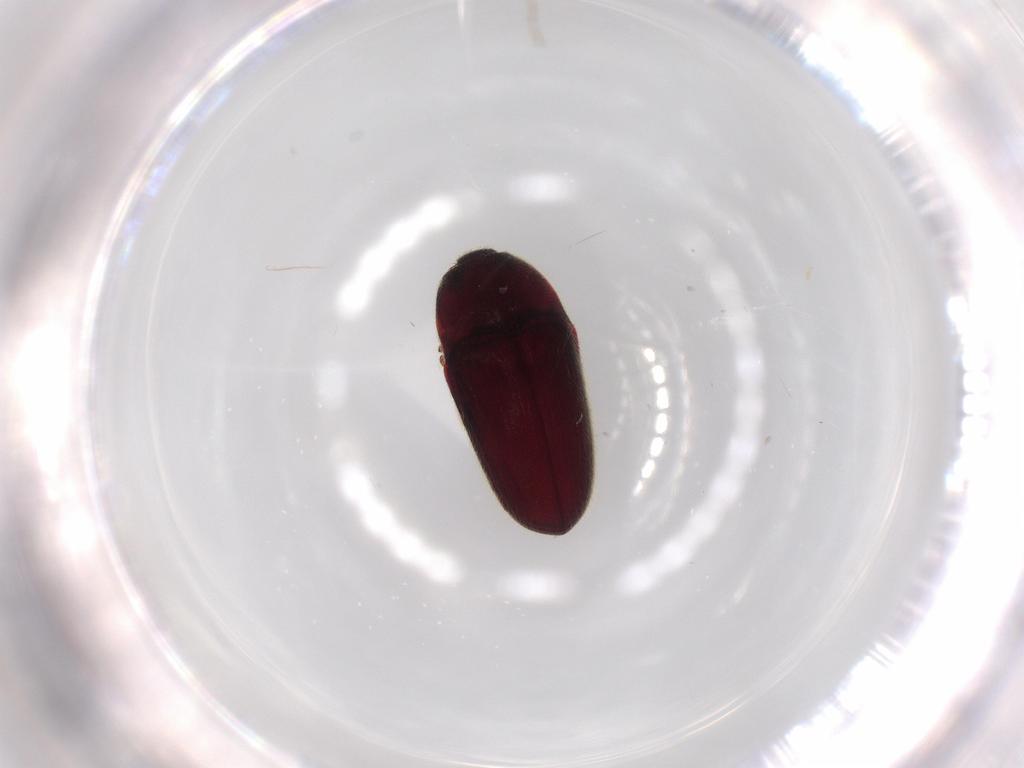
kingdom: Animalia
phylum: Arthropoda
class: Insecta
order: Coleoptera
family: Throscidae
